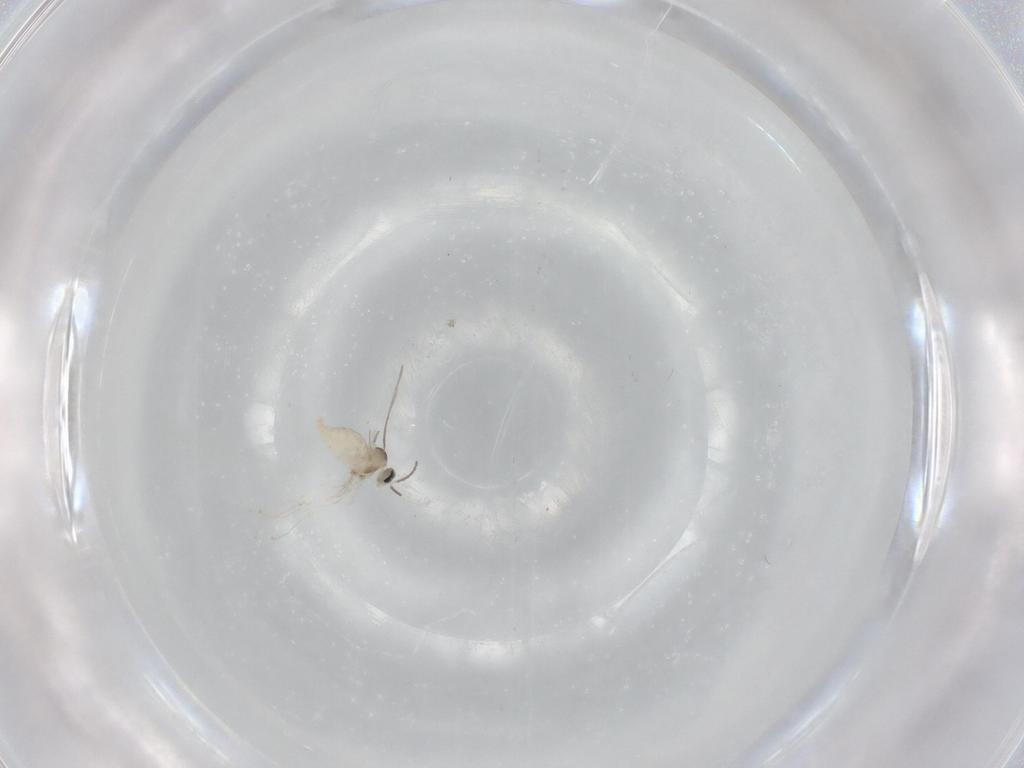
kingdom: Animalia
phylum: Arthropoda
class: Insecta
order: Diptera
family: Cecidomyiidae
